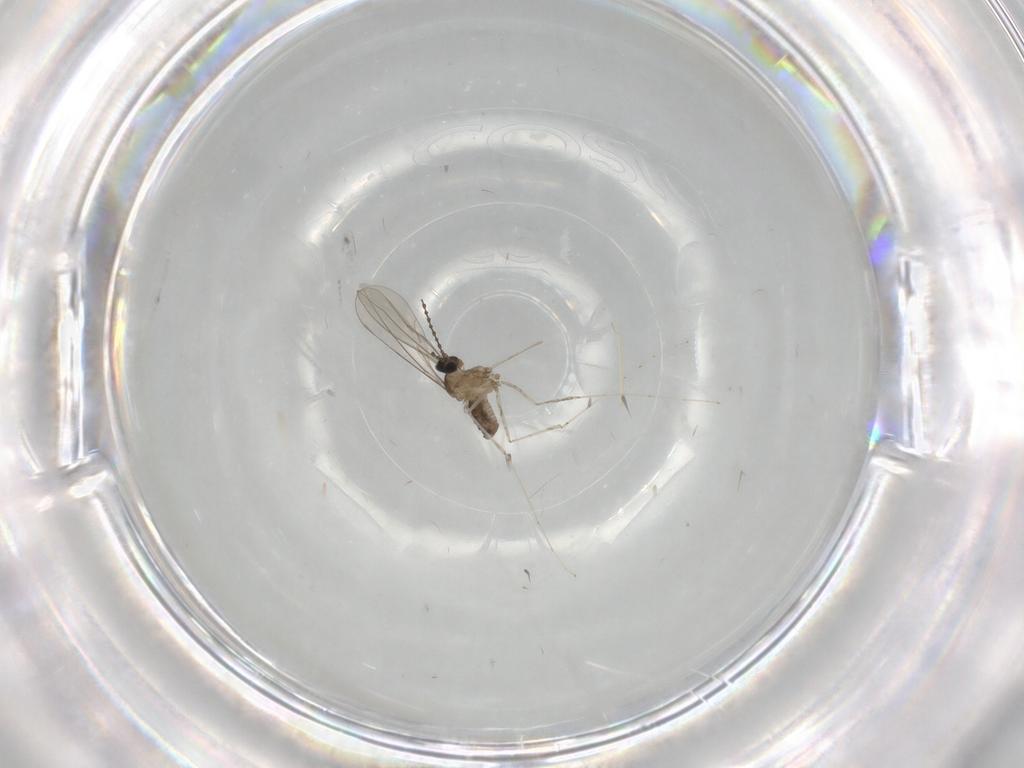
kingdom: Animalia
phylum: Arthropoda
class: Insecta
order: Diptera
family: Cecidomyiidae
